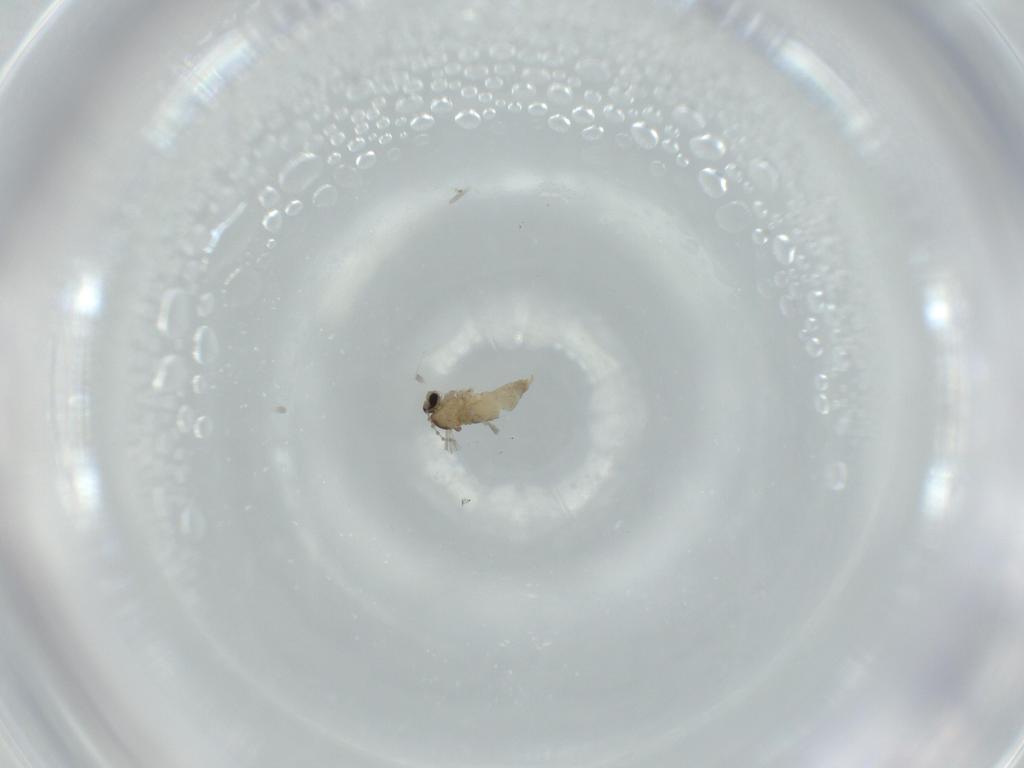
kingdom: Animalia
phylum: Arthropoda
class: Insecta
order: Diptera
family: Cecidomyiidae
